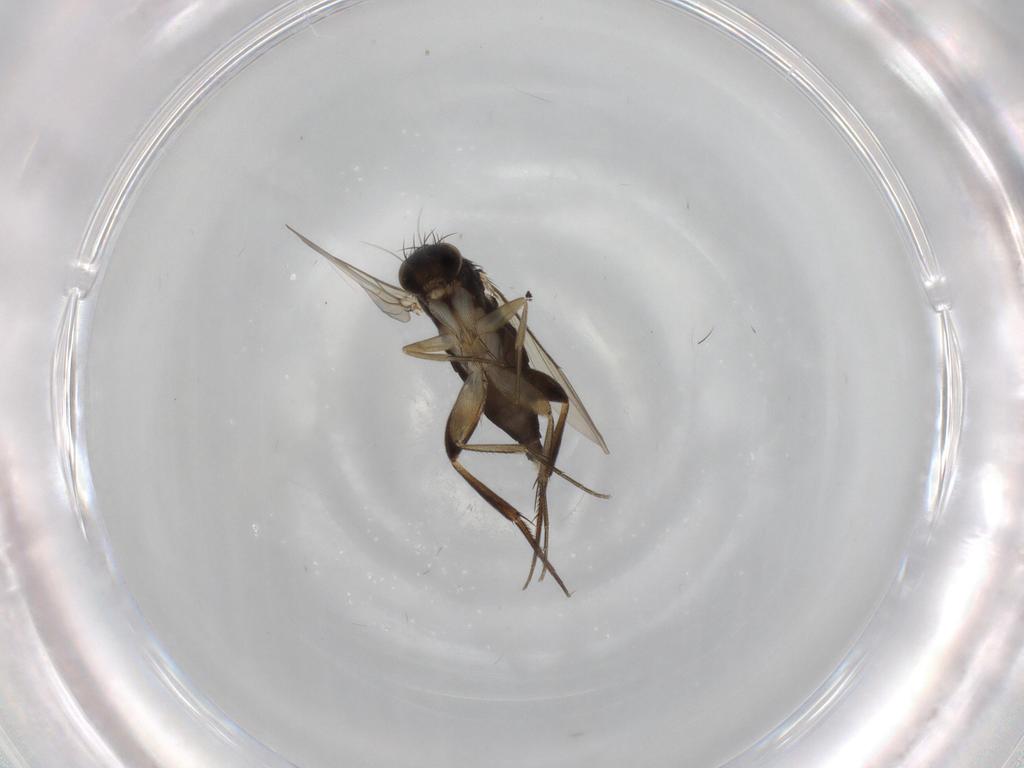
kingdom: Animalia
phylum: Arthropoda
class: Insecta
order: Diptera
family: Phoridae
